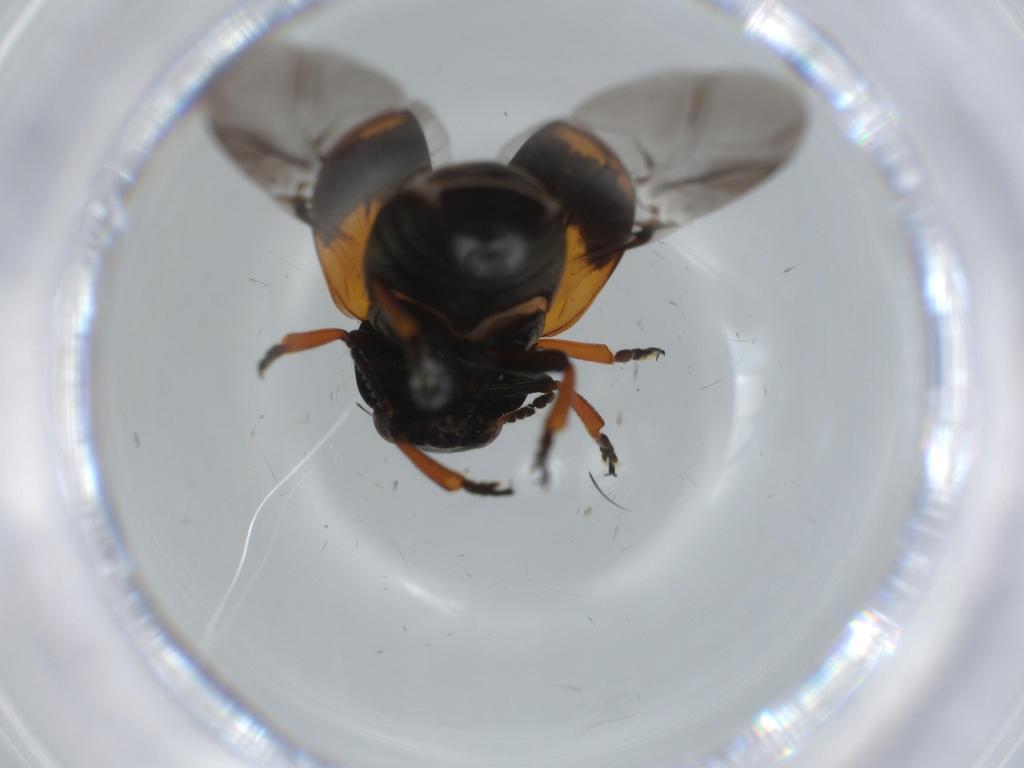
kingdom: Animalia
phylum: Arthropoda
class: Insecta
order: Coleoptera
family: Chrysomelidae
